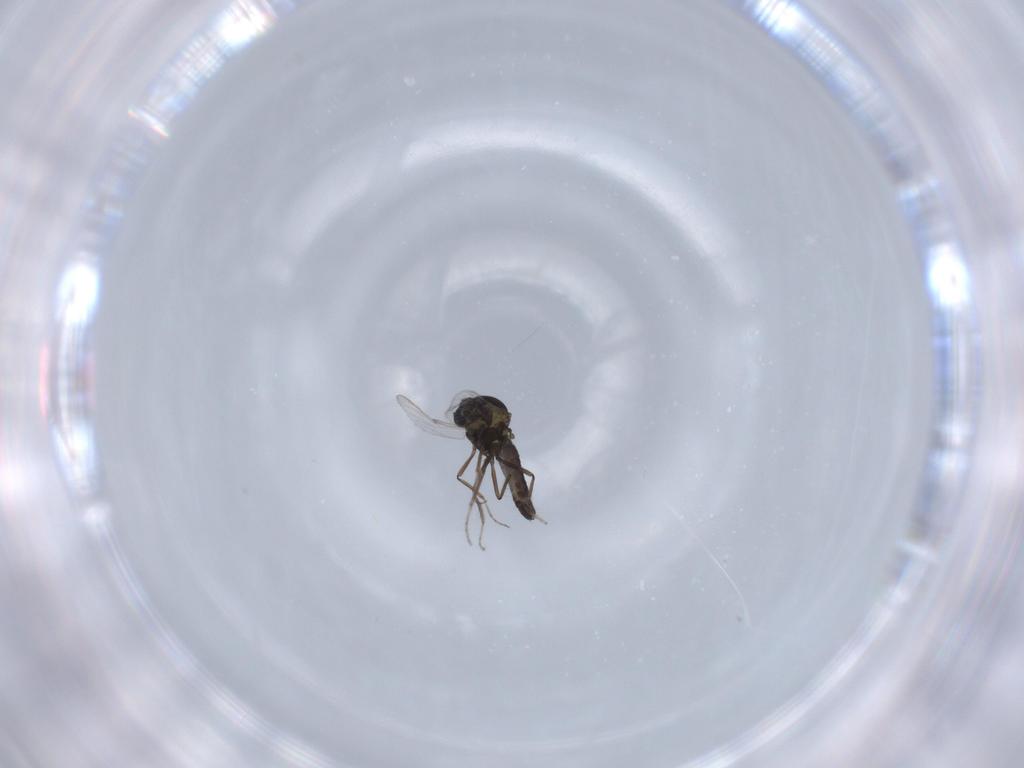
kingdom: Animalia
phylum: Arthropoda
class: Insecta
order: Diptera
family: Ceratopogonidae
